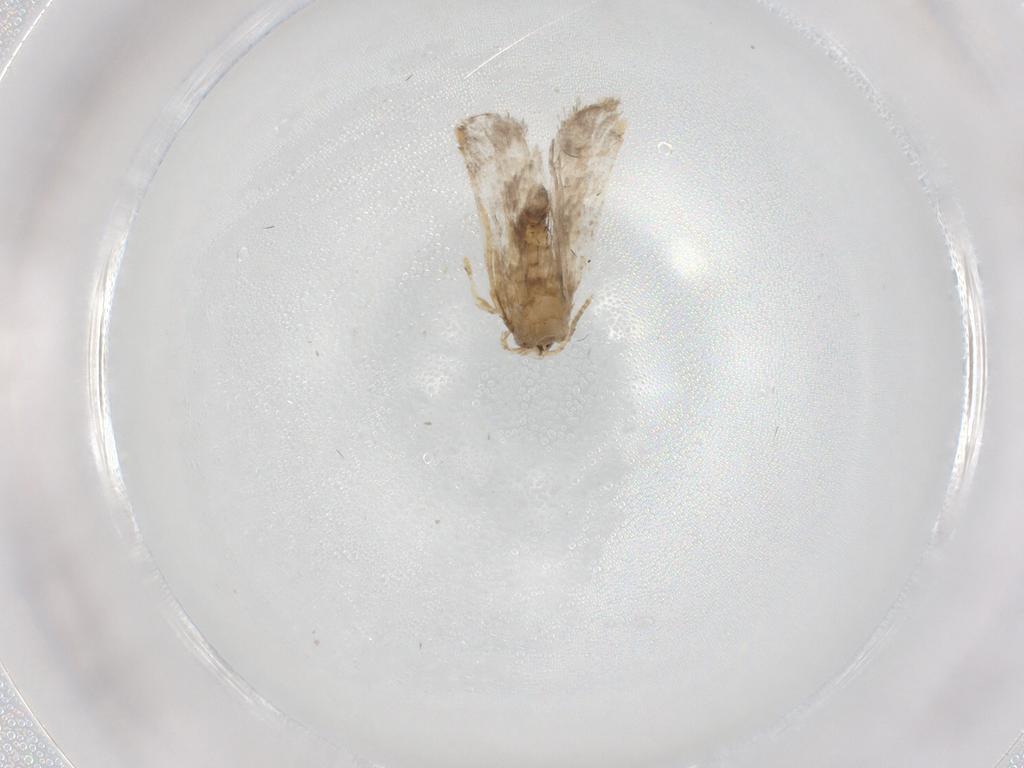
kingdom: Animalia
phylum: Arthropoda
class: Insecta
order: Lepidoptera
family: Psychidae
